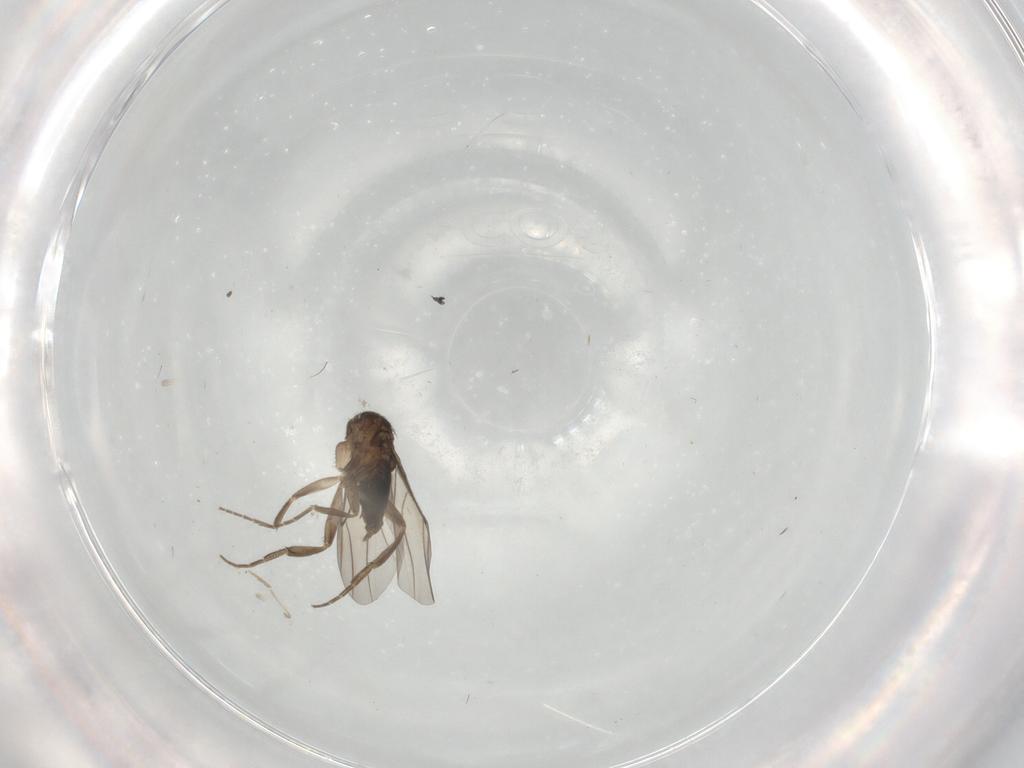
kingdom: Animalia
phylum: Arthropoda
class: Insecta
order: Diptera
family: Phoridae
